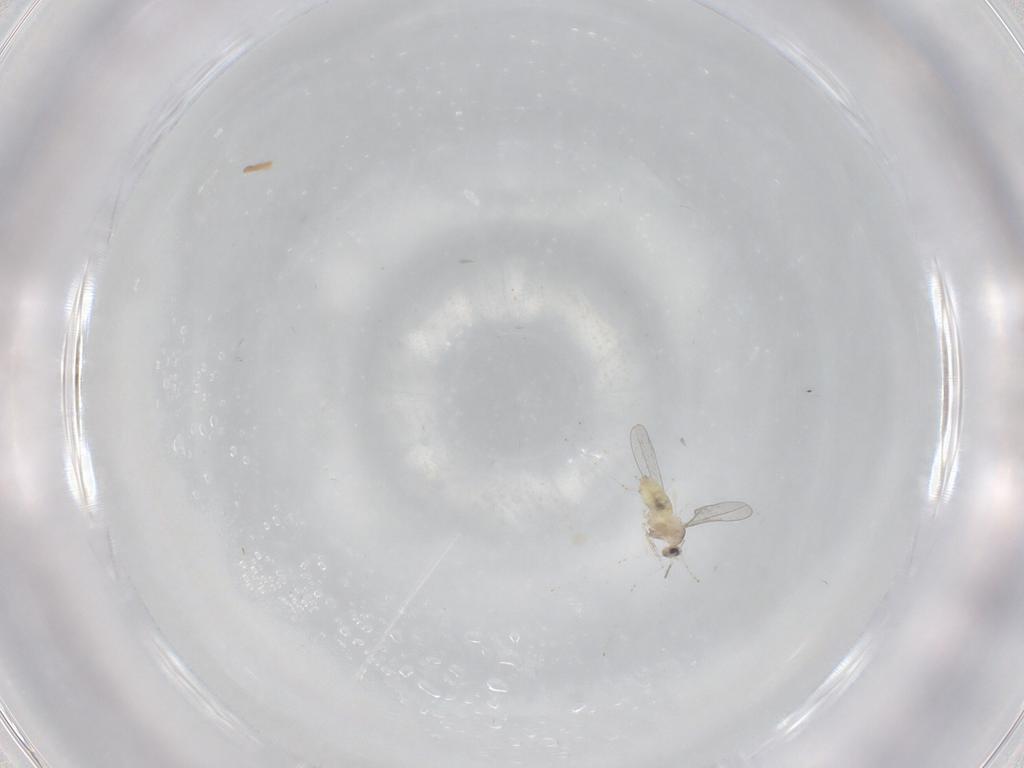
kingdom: Animalia
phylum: Arthropoda
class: Insecta
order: Diptera
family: Cecidomyiidae
